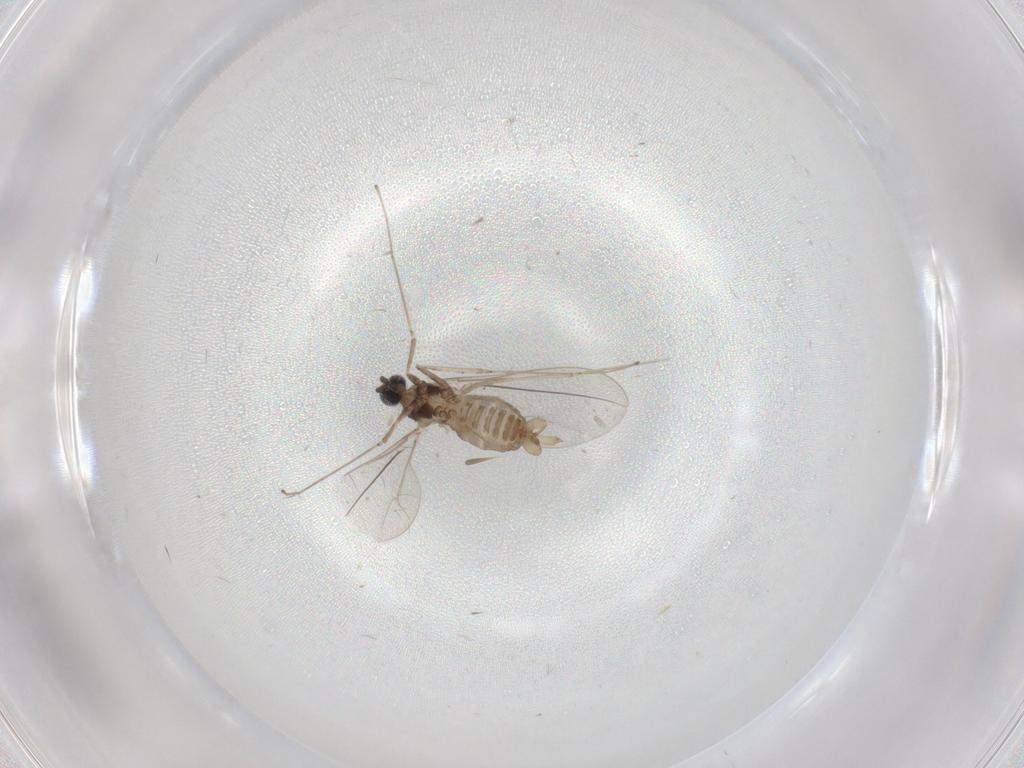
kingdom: Animalia
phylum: Arthropoda
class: Insecta
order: Diptera
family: Cecidomyiidae
